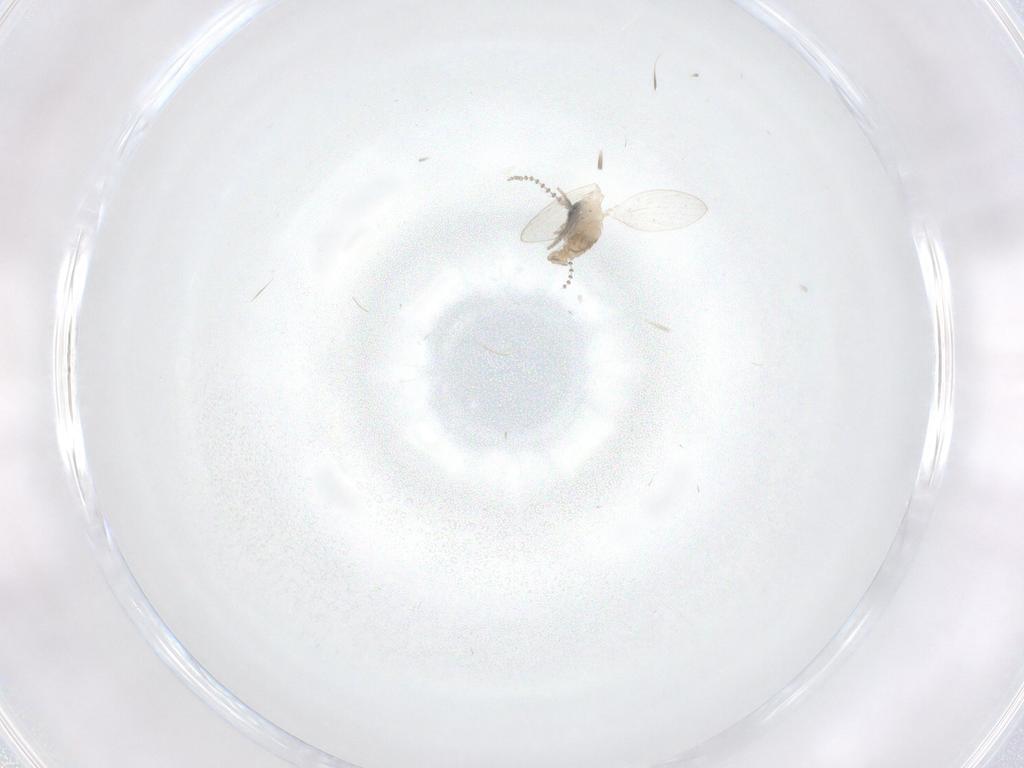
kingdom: Animalia
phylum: Arthropoda
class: Insecta
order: Diptera
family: Psychodidae
